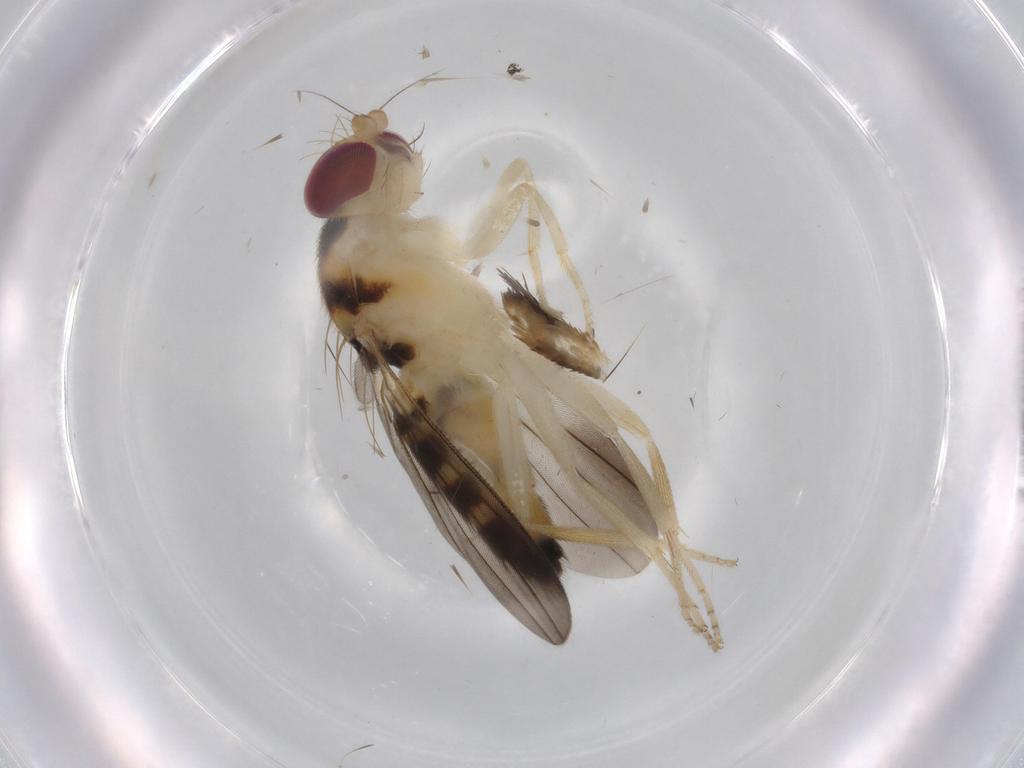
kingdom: Animalia
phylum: Arthropoda
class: Insecta
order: Diptera
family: Clusiidae
